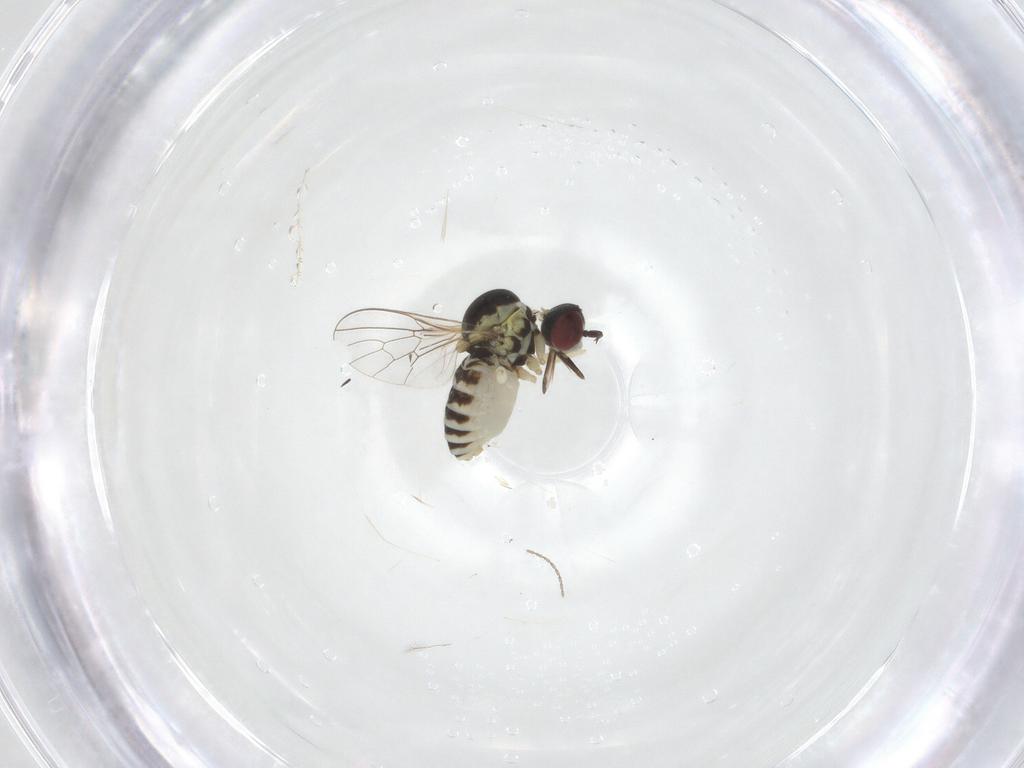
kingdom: Animalia
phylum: Arthropoda
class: Insecta
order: Diptera
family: Mythicomyiidae
